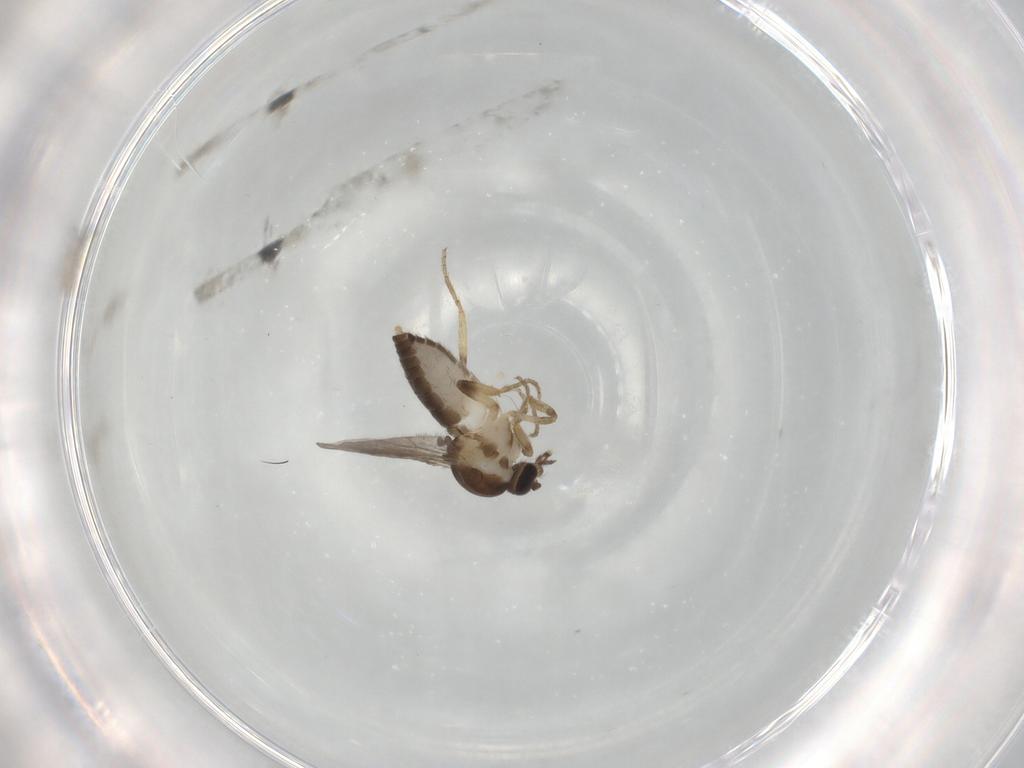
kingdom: Animalia
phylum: Arthropoda
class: Insecta
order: Diptera
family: Ceratopogonidae
